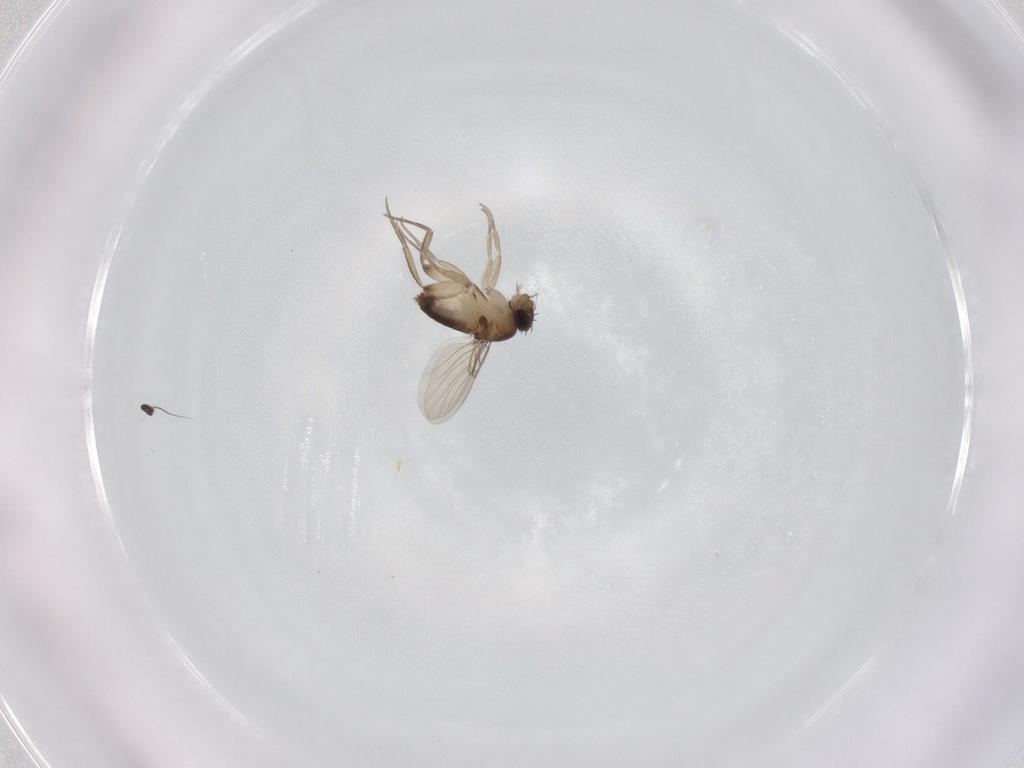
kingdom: Animalia
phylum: Arthropoda
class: Insecta
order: Diptera
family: Phoridae
